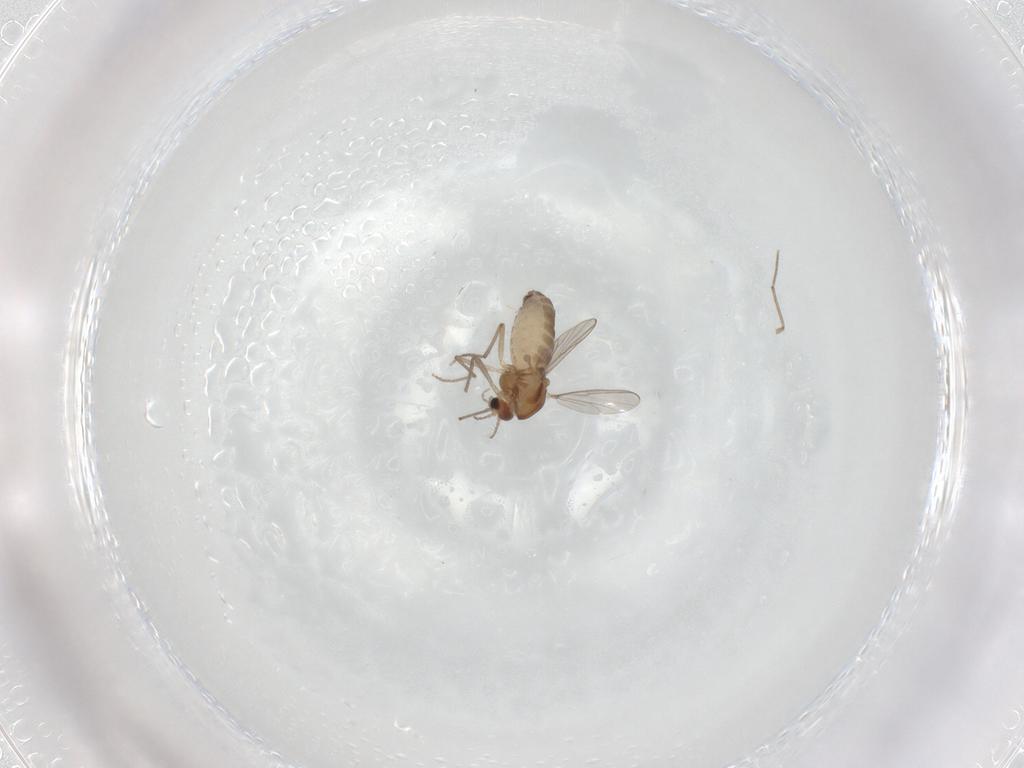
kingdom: Animalia
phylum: Arthropoda
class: Insecta
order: Diptera
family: Chironomidae
